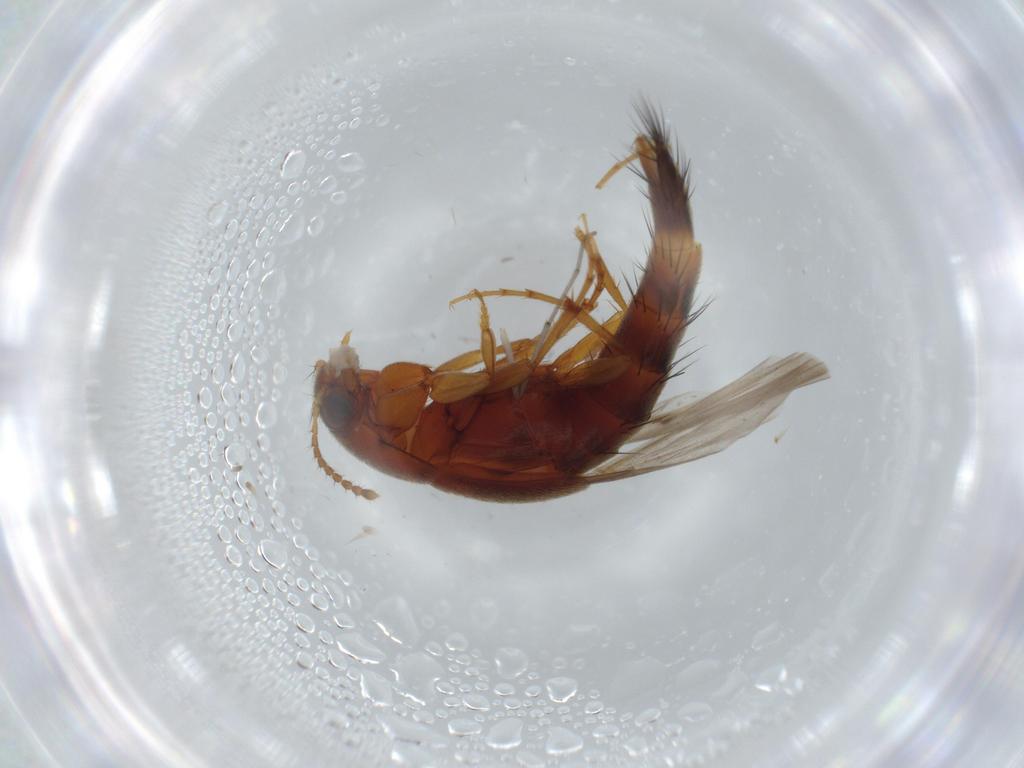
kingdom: Animalia
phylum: Arthropoda
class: Insecta
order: Coleoptera
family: Staphylinidae
